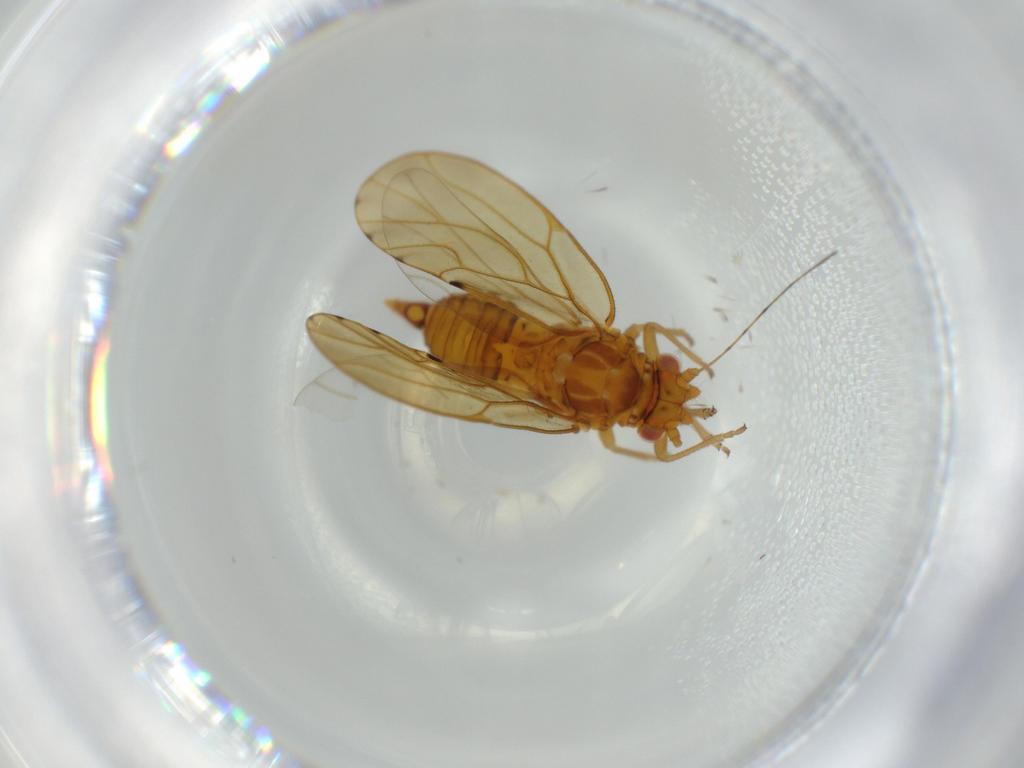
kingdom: Animalia
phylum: Arthropoda
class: Insecta
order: Hemiptera
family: Psylloidea_incertae_sedis
